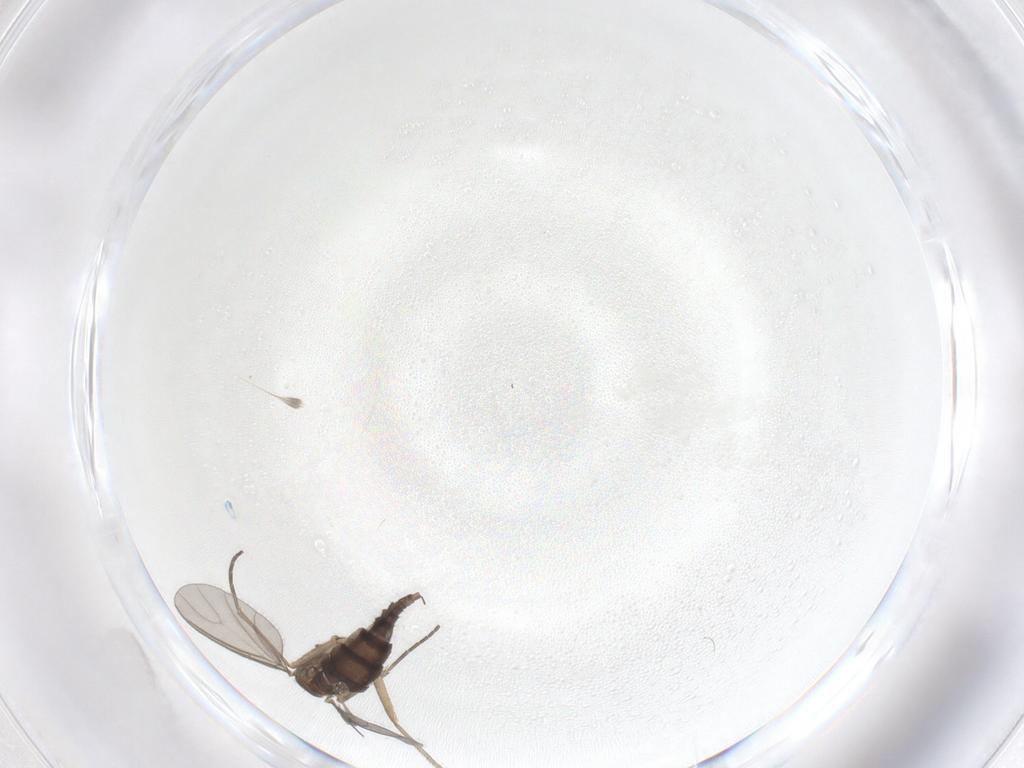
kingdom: Animalia
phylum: Arthropoda
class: Insecta
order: Diptera
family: Sciaridae
